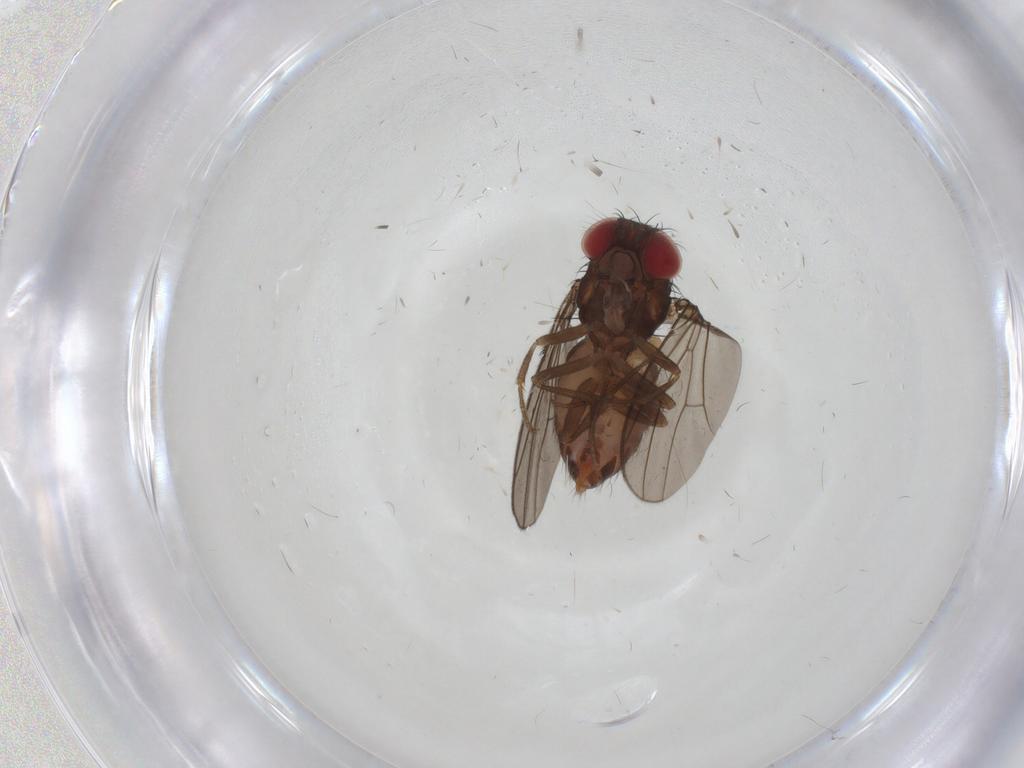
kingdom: Animalia
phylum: Arthropoda
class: Insecta
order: Diptera
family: Drosophilidae
